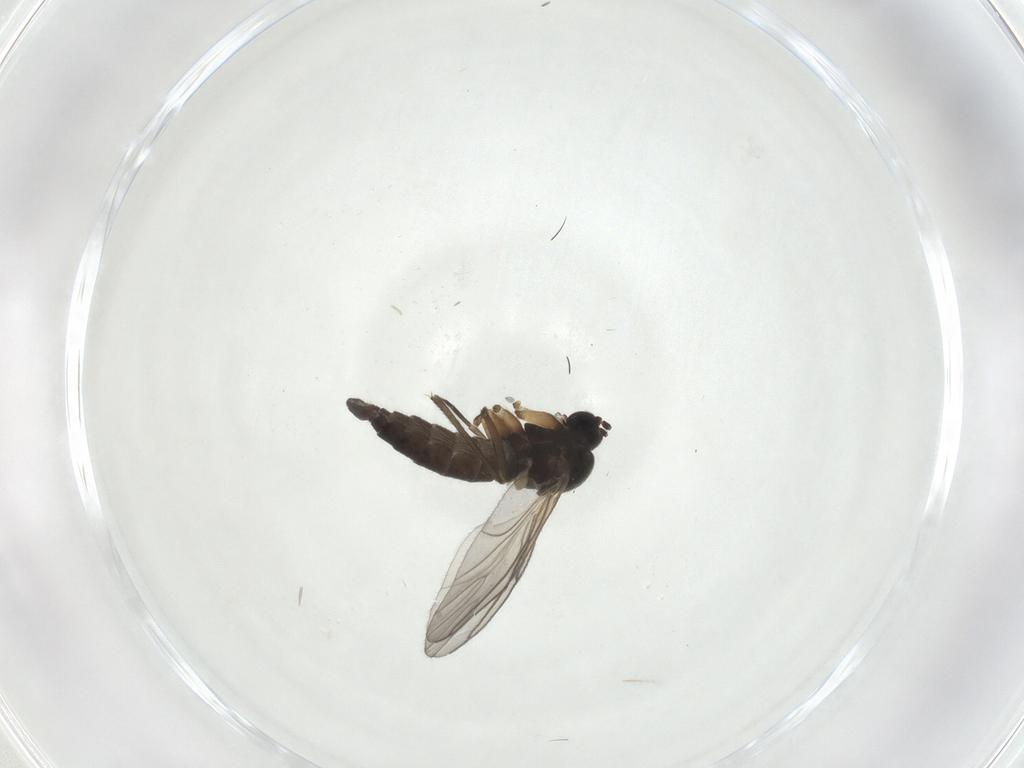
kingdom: Animalia
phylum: Arthropoda
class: Insecta
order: Diptera
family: Sciaridae
